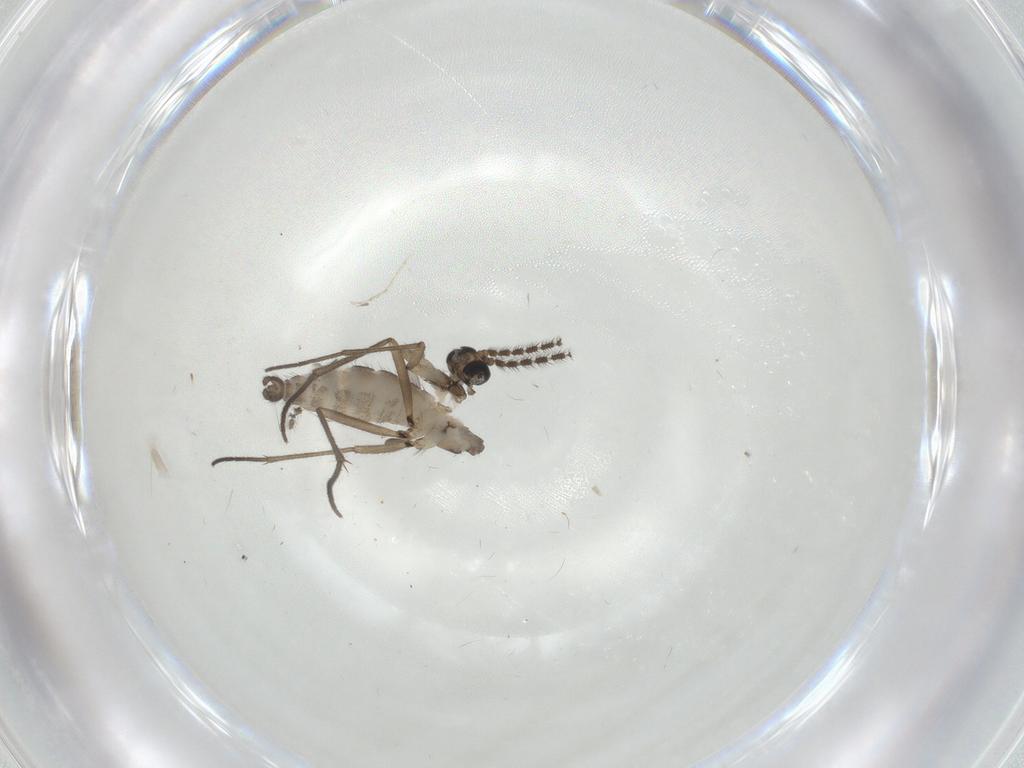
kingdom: Animalia
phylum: Arthropoda
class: Insecta
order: Diptera
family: Sciaridae
